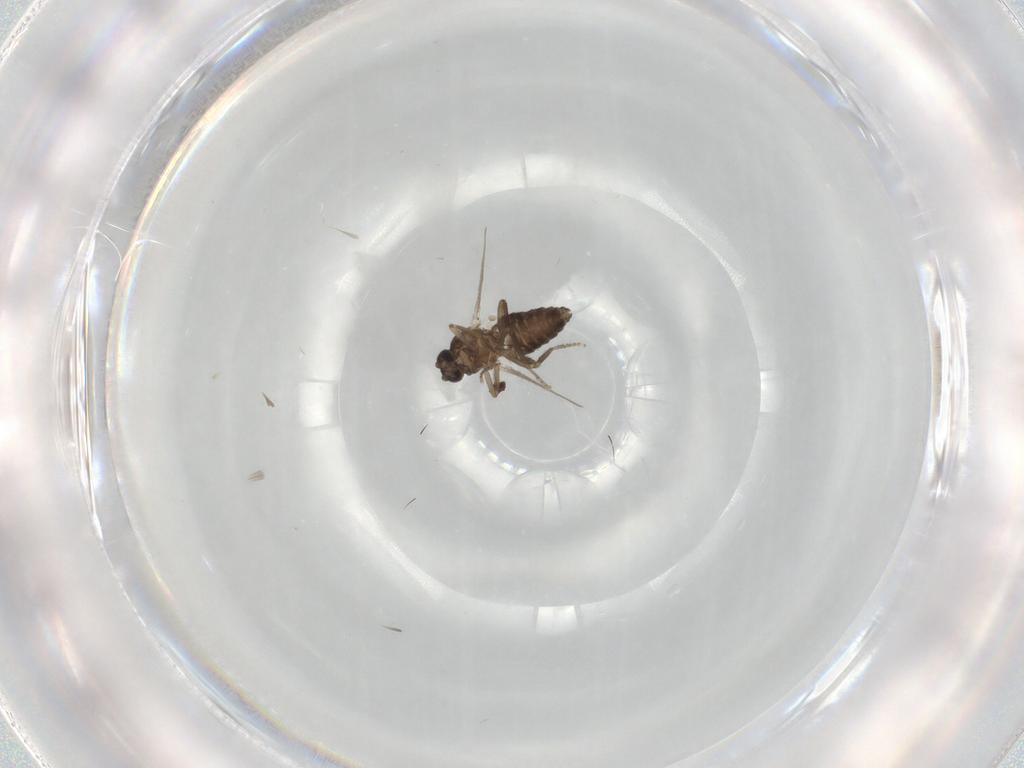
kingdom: Animalia
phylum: Arthropoda
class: Insecta
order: Diptera
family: Ceratopogonidae
